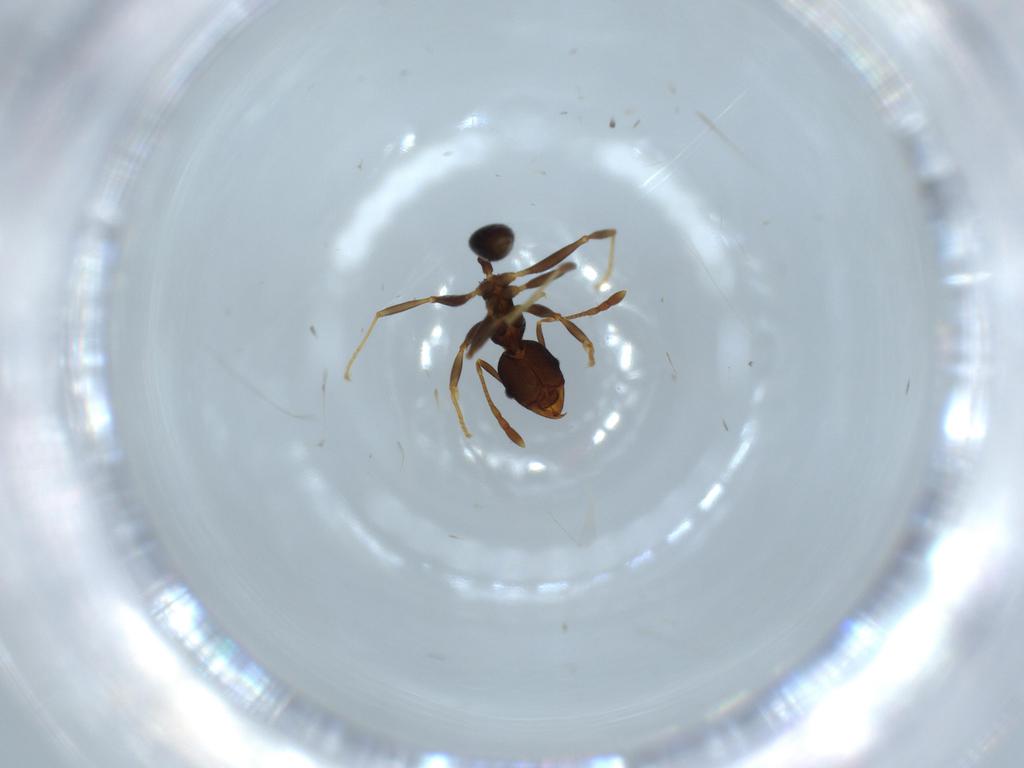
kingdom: Animalia
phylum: Arthropoda
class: Insecta
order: Hymenoptera
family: Formicidae
